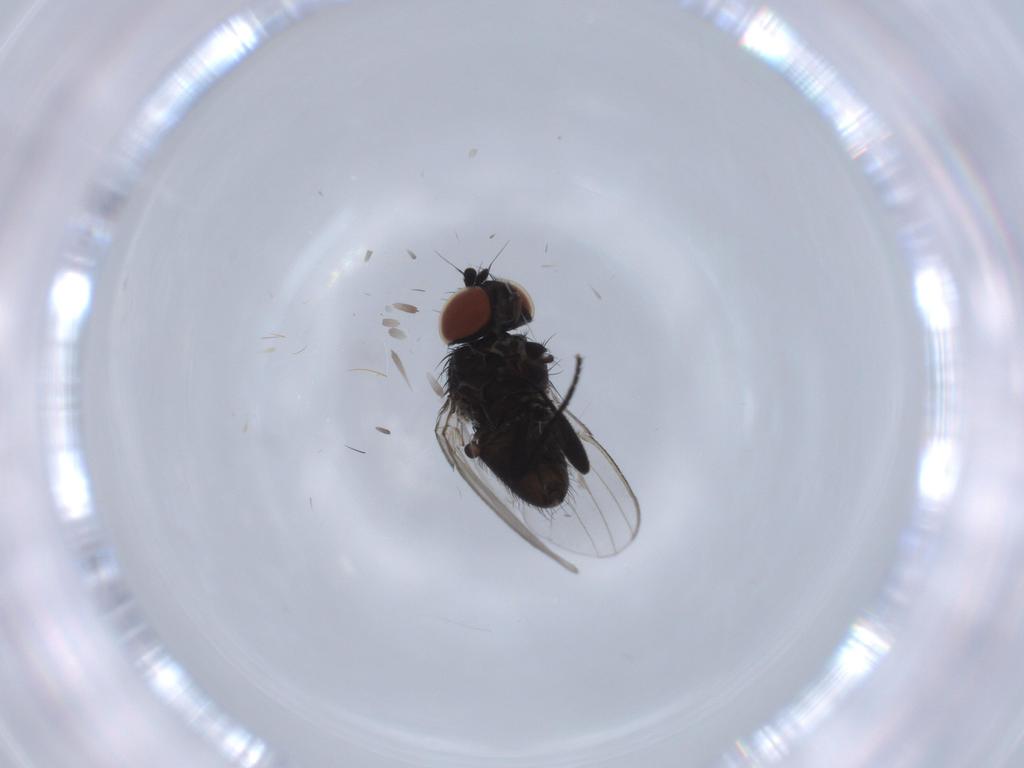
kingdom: Animalia
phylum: Arthropoda
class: Insecta
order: Diptera
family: Milichiidae
